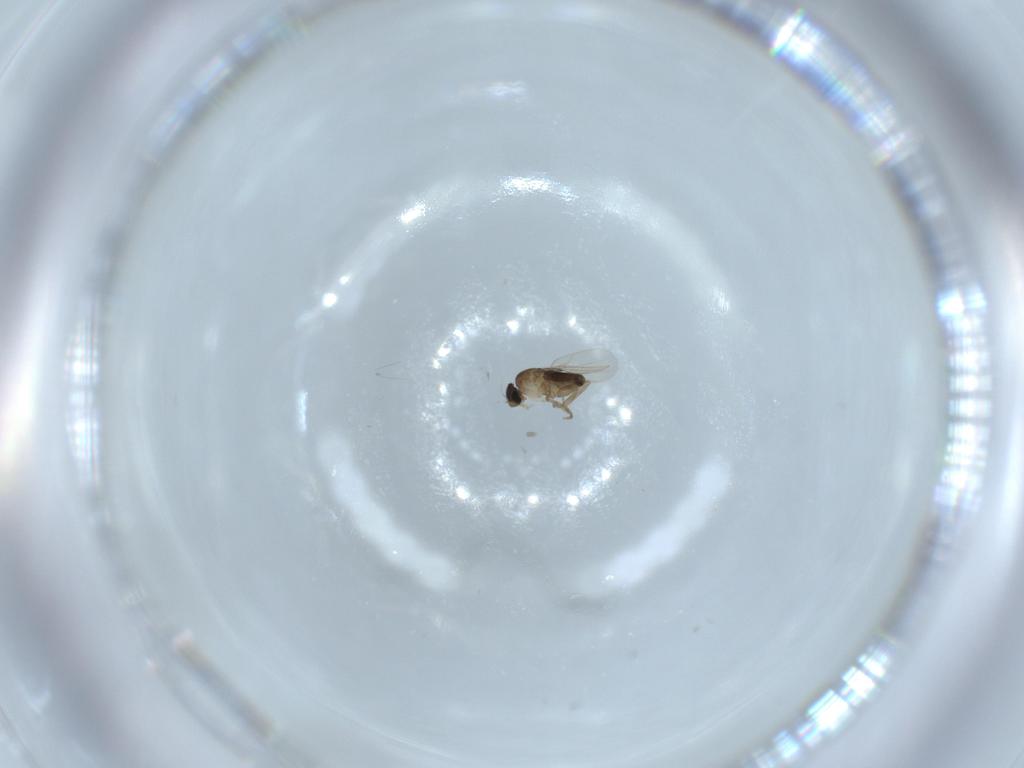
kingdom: Animalia
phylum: Arthropoda
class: Insecta
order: Diptera
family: Phoridae
